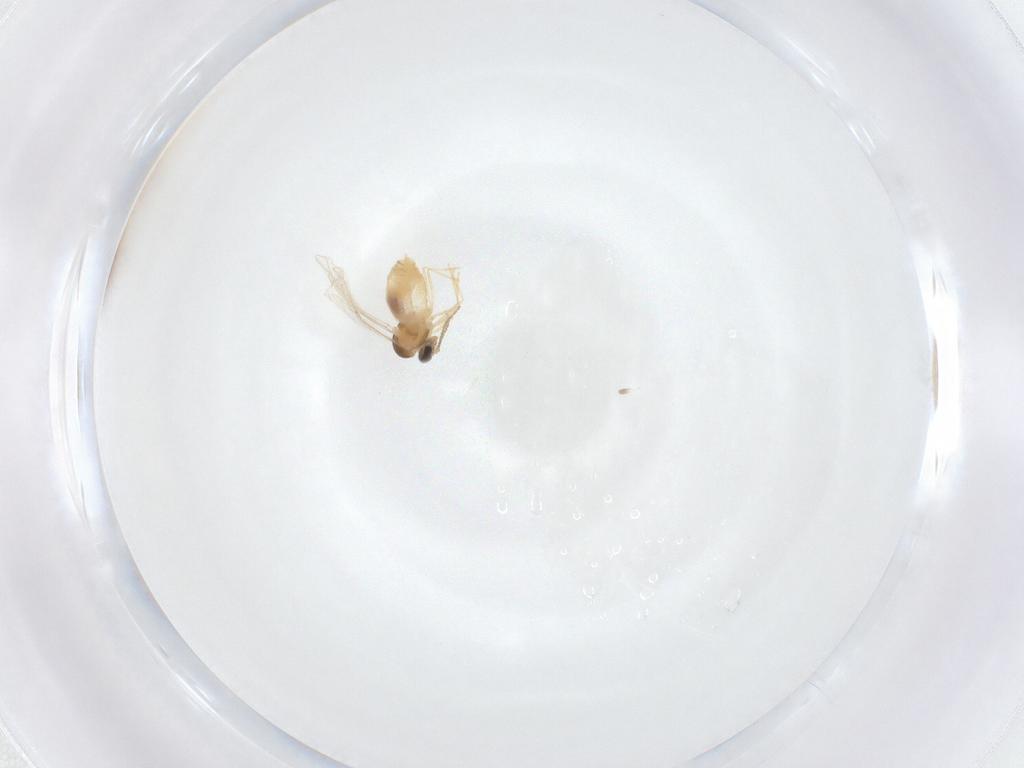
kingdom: Animalia
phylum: Arthropoda
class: Insecta
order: Diptera
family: Cecidomyiidae
